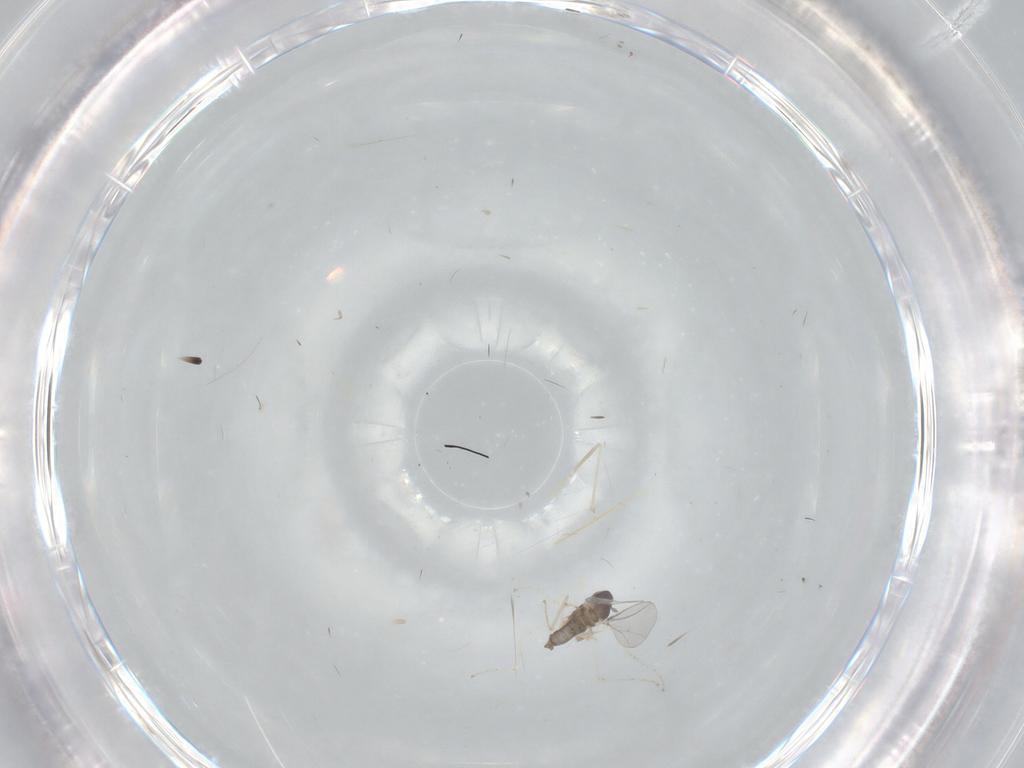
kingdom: Animalia
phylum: Arthropoda
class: Insecta
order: Diptera
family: Cecidomyiidae
